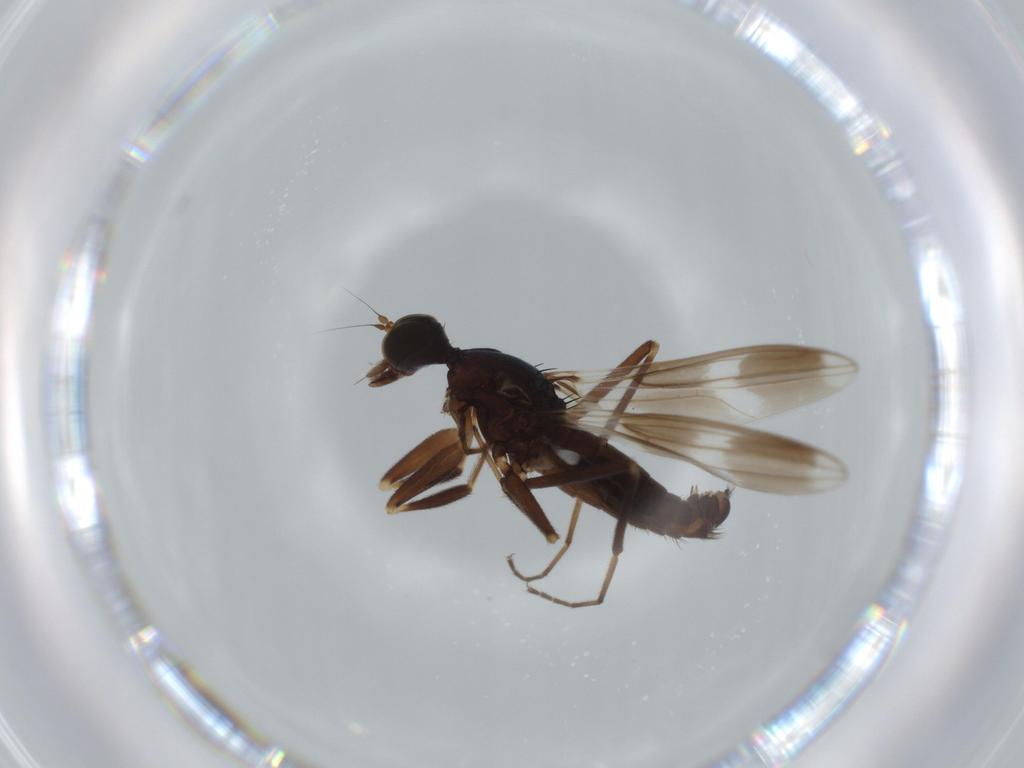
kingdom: Animalia
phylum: Arthropoda
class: Insecta
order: Diptera
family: Hybotidae
